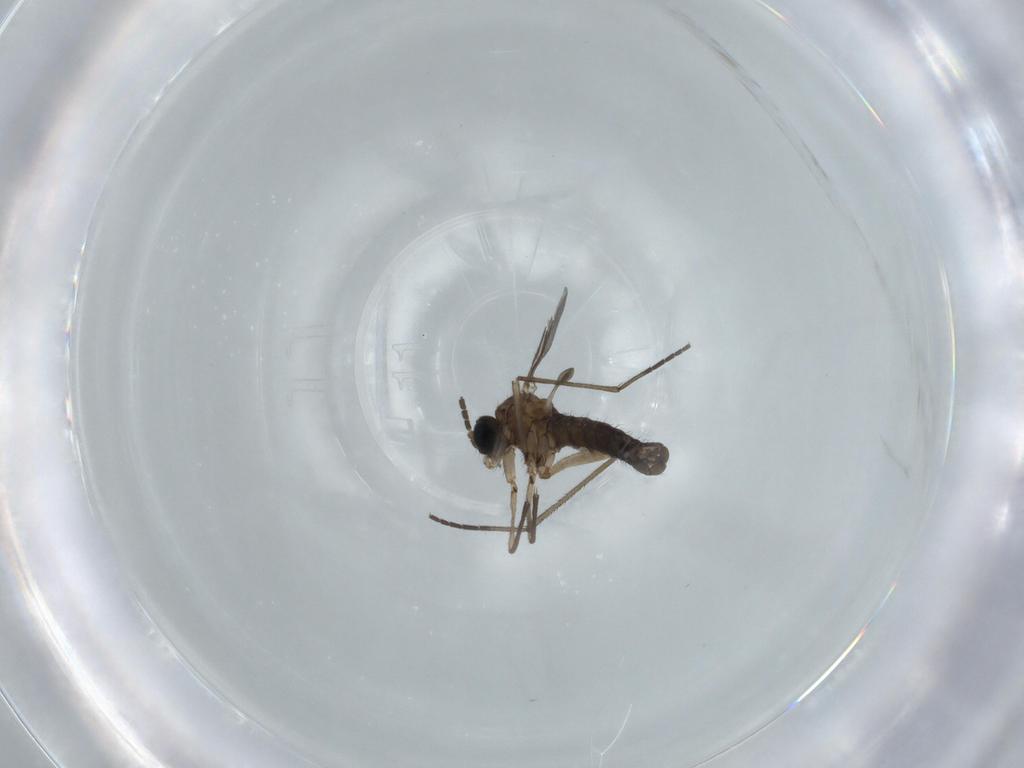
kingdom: Animalia
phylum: Arthropoda
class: Insecta
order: Diptera
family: Sciaridae
